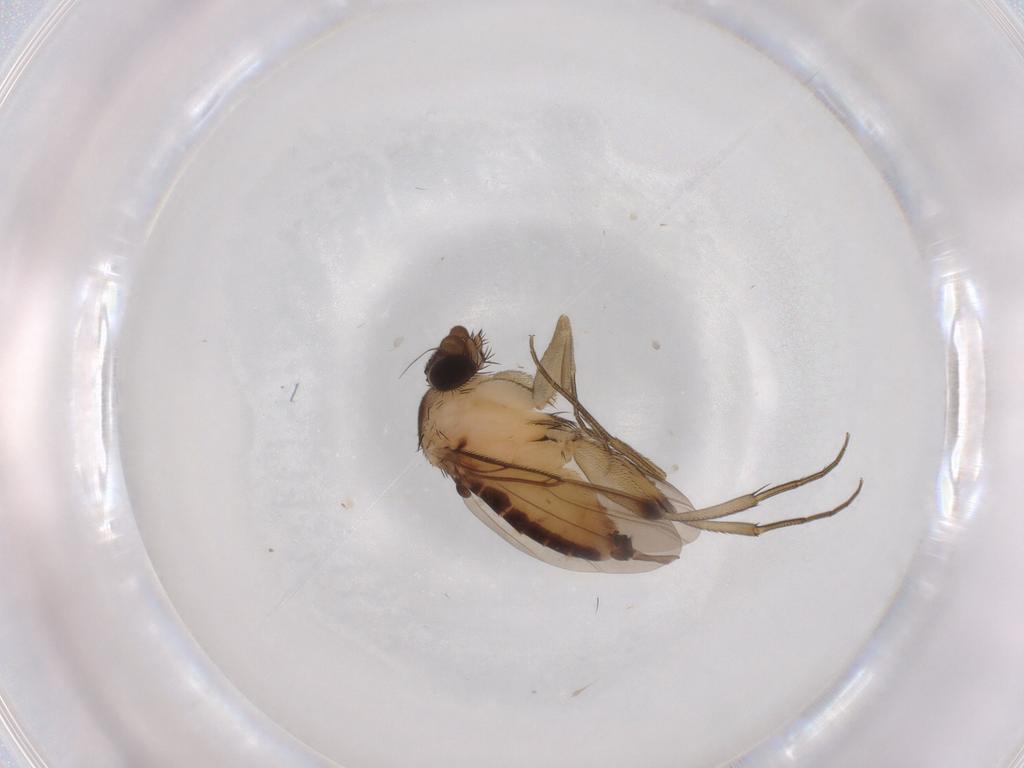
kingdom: Animalia
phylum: Arthropoda
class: Insecta
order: Diptera
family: Phoridae
